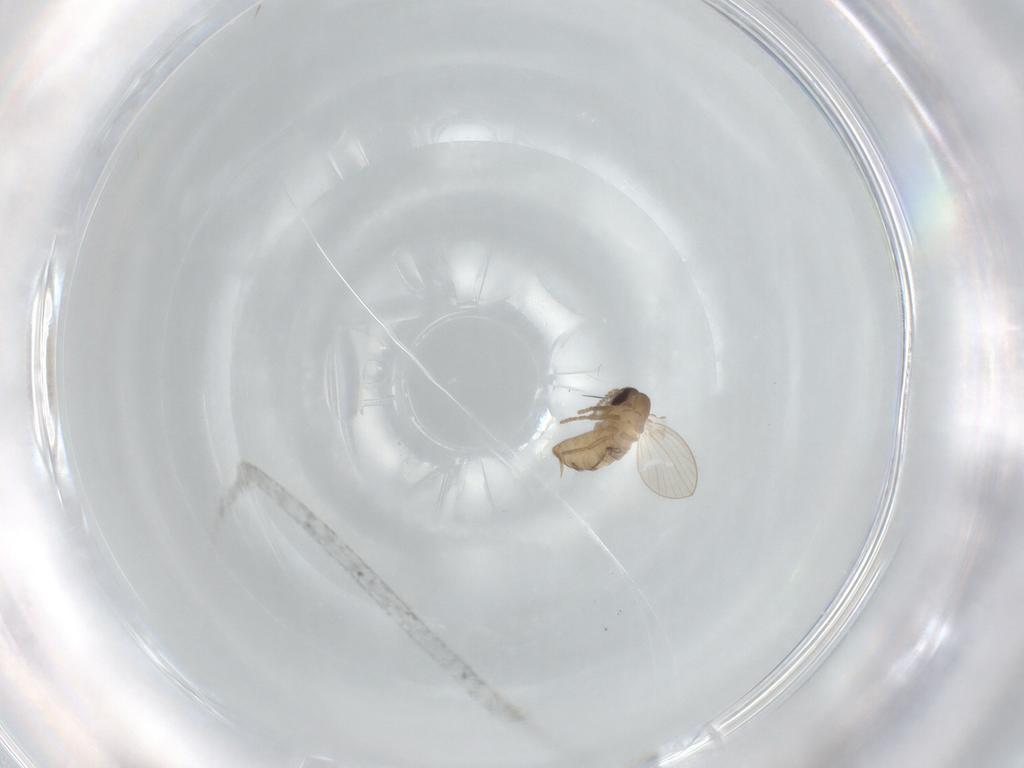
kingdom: Animalia
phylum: Arthropoda
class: Insecta
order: Diptera
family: Psychodidae
